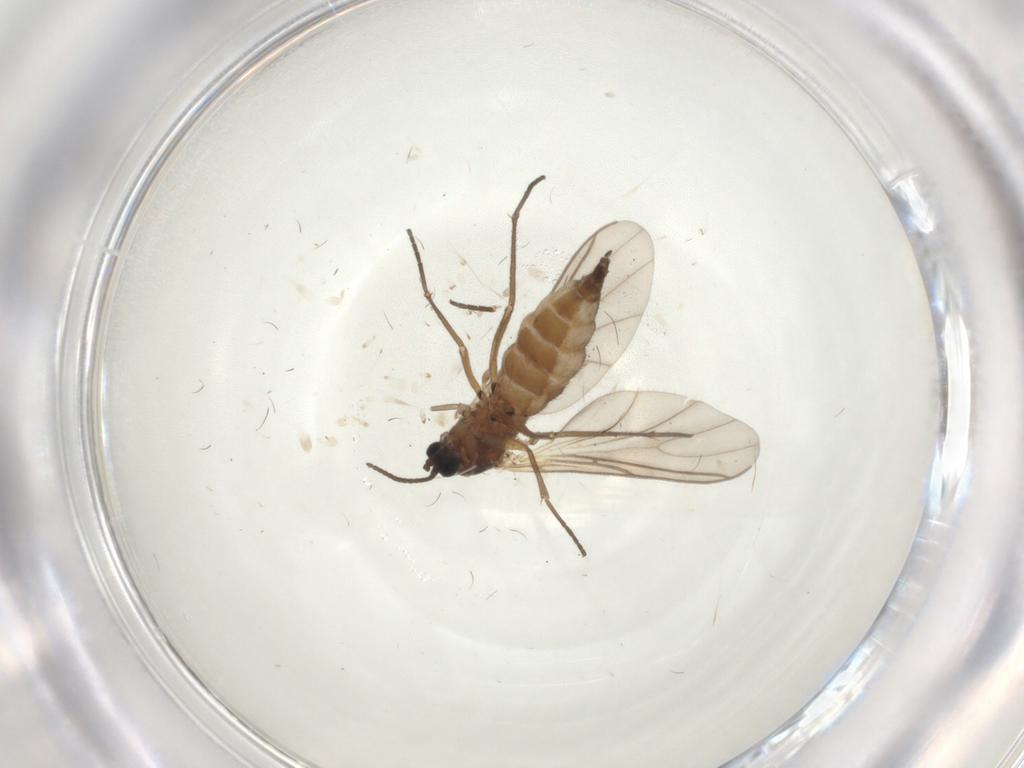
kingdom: Animalia
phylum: Arthropoda
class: Insecta
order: Diptera
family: Sciaridae
